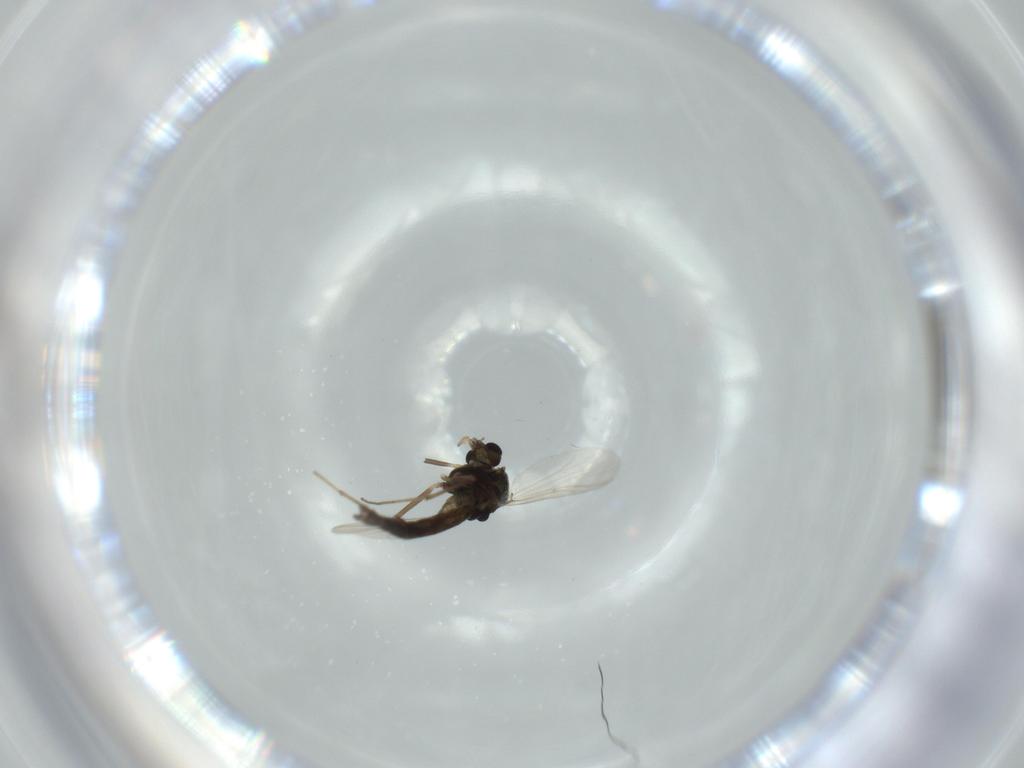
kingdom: Animalia
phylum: Arthropoda
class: Insecta
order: Diptera
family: Chironomidae
